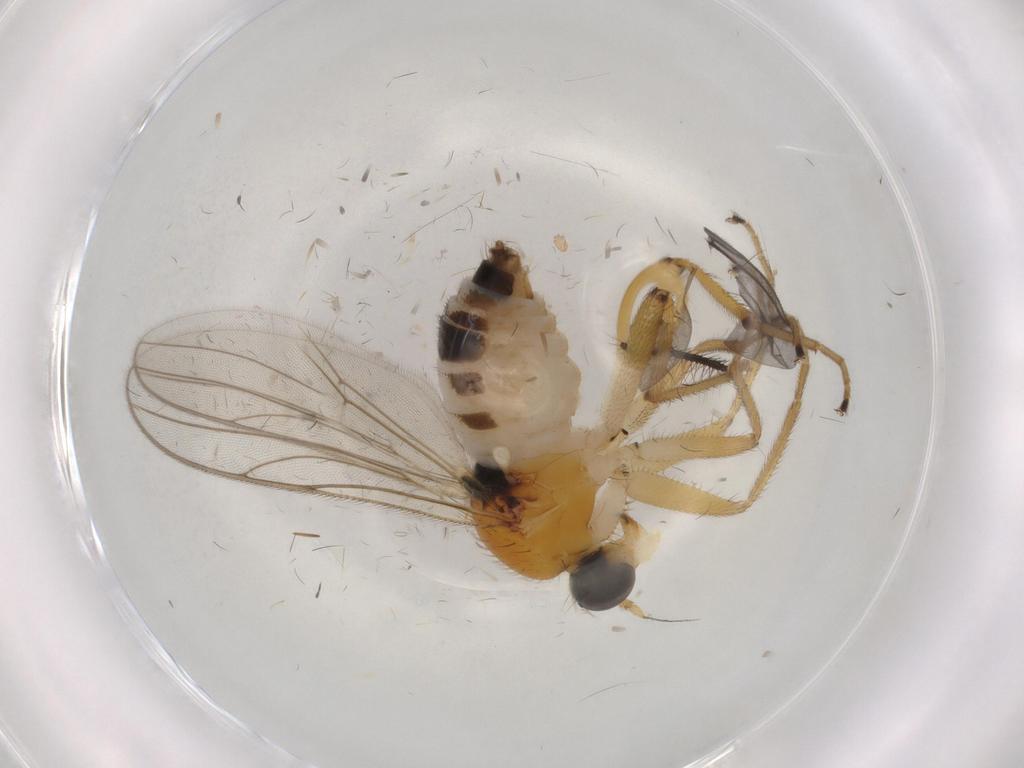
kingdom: Animalia
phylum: Arthropoda
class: Insecta
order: Diptera
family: Hybotidae
